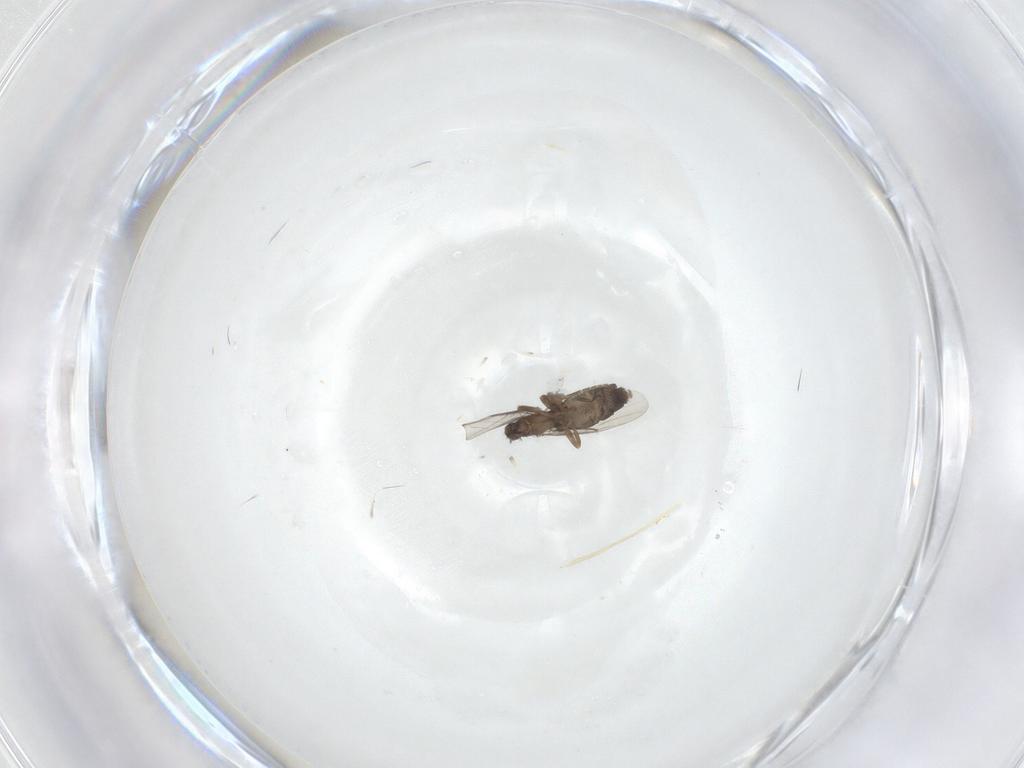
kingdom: Animalia
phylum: Arthropoda
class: Insecta
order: Diptera
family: Phoridae
